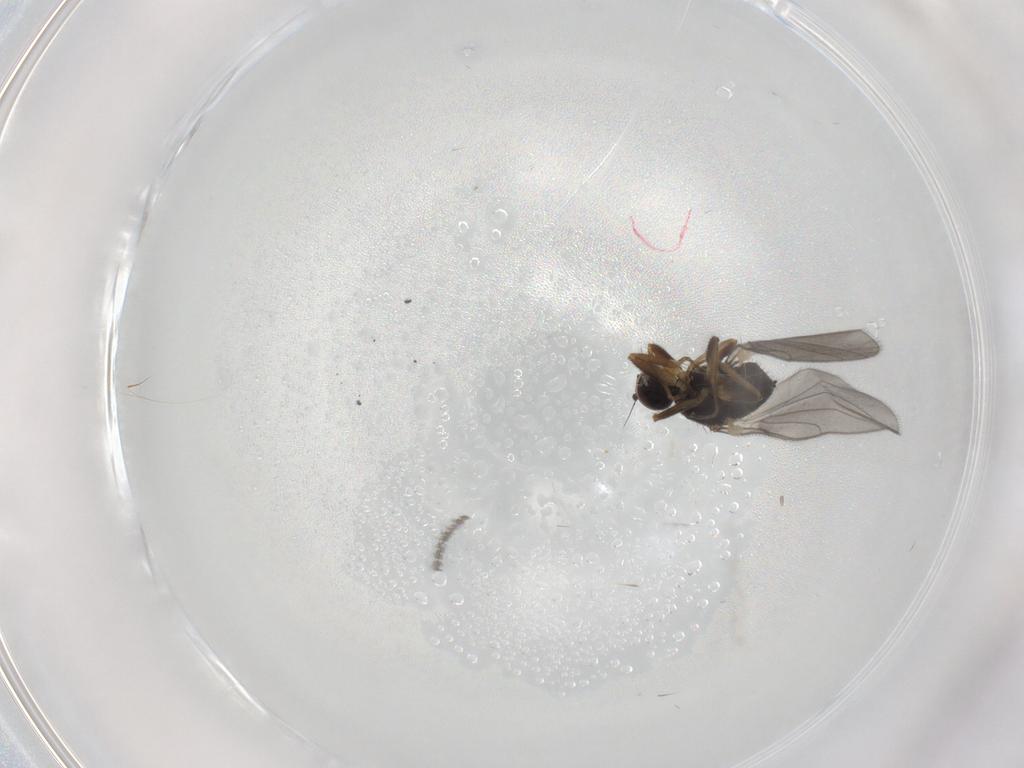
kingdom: Animalia
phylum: Arthropoda
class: Insecta
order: Diptera
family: Hybotidae
